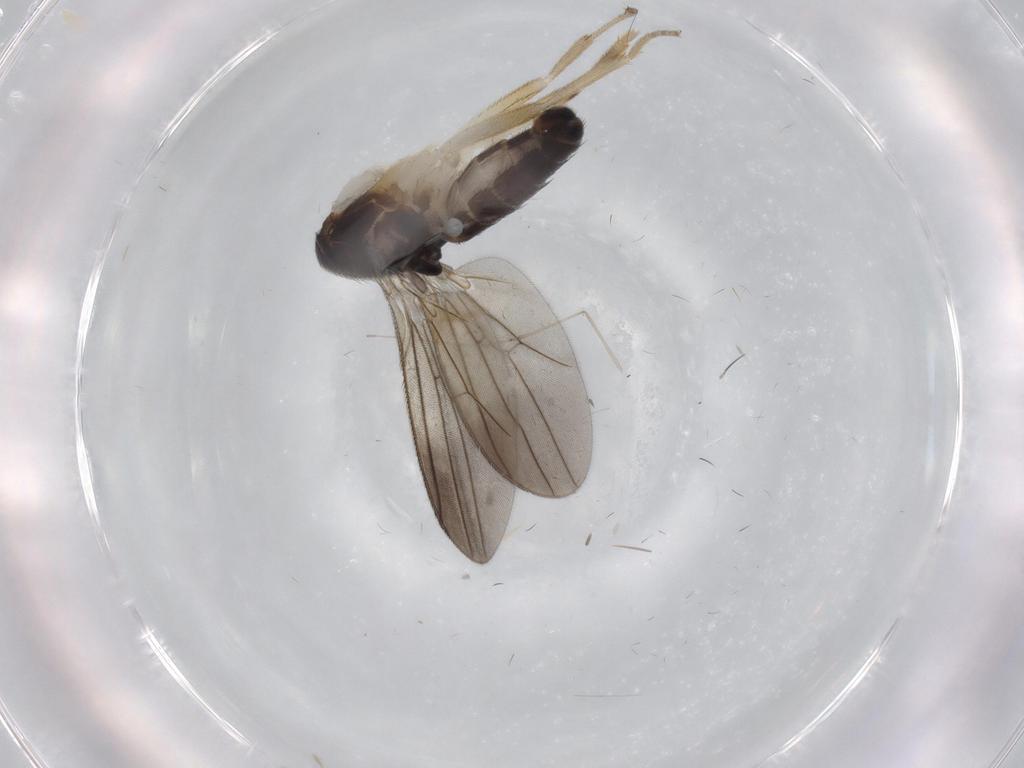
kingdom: Animalia
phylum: Arthropoda
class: Insecta
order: Diptera
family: Clusiidae
